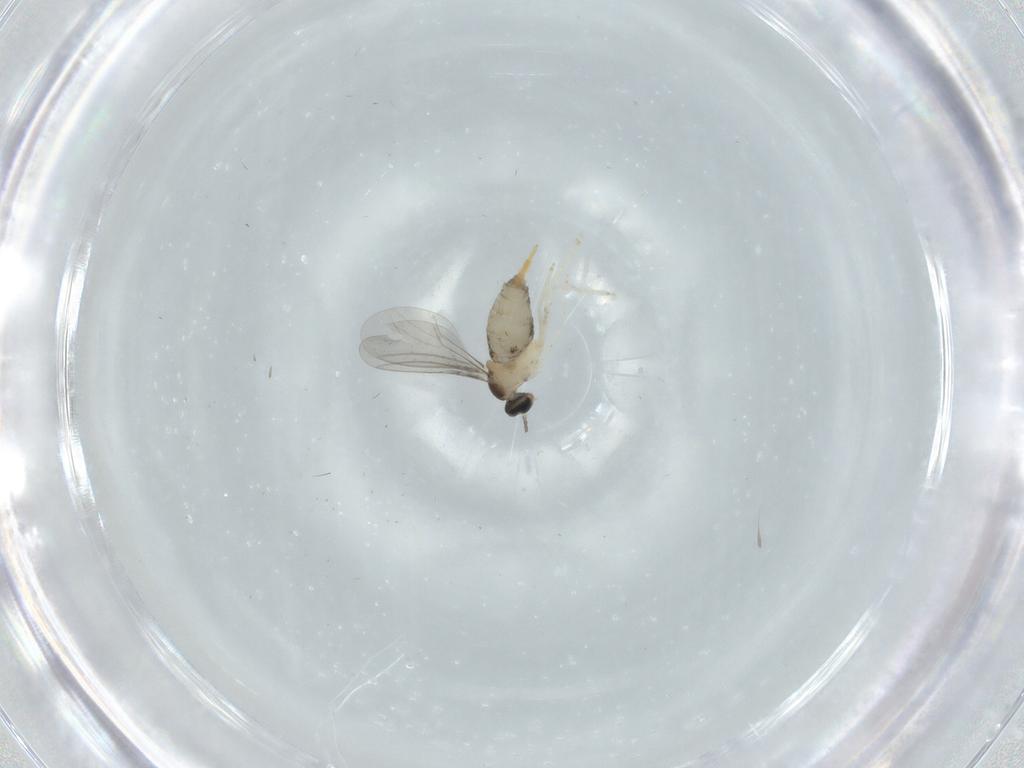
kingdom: Animalia
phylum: Arthropoda
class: Insecta
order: Diptera
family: Cecidomyiidae
